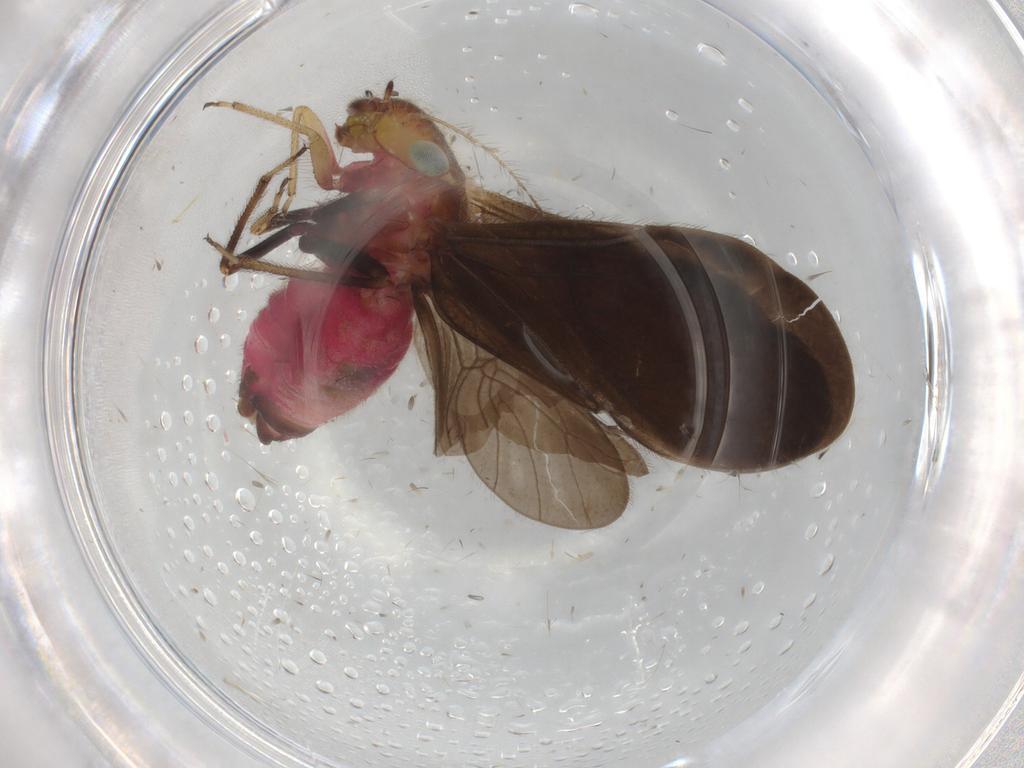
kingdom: Animalia
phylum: Arthropoda
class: Insecta
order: Psocodea
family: Pseudocaeciliidae
